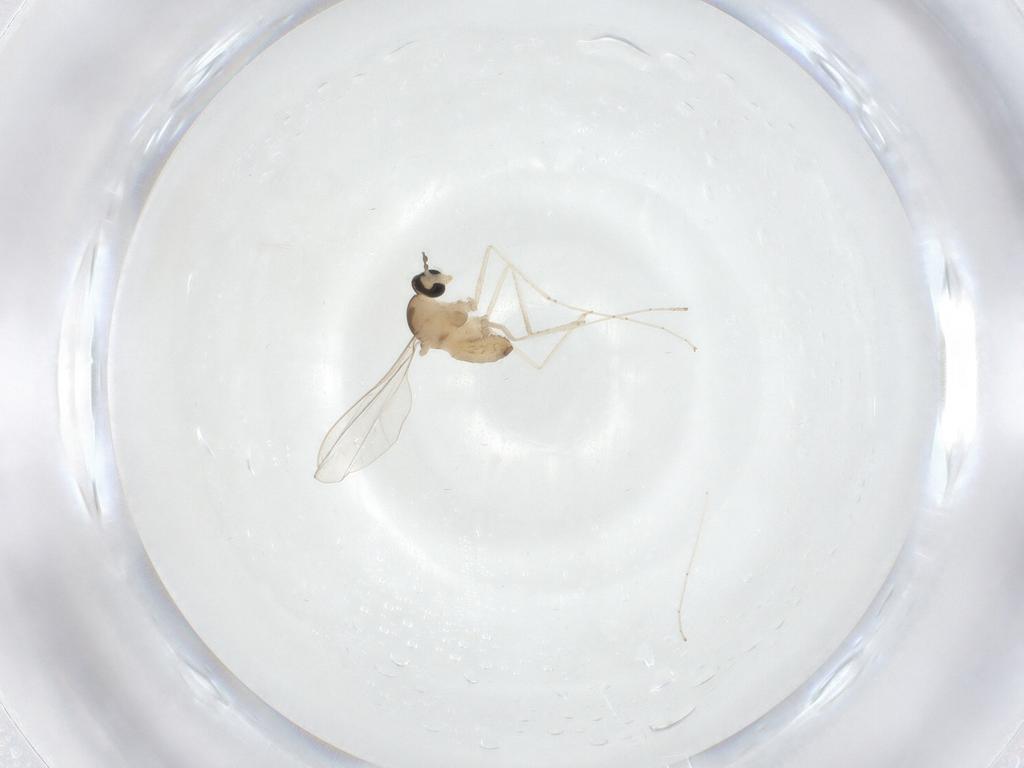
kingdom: Animalia
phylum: Arthropoda
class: Insecta
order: Diptera
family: Cecidomyiidae
